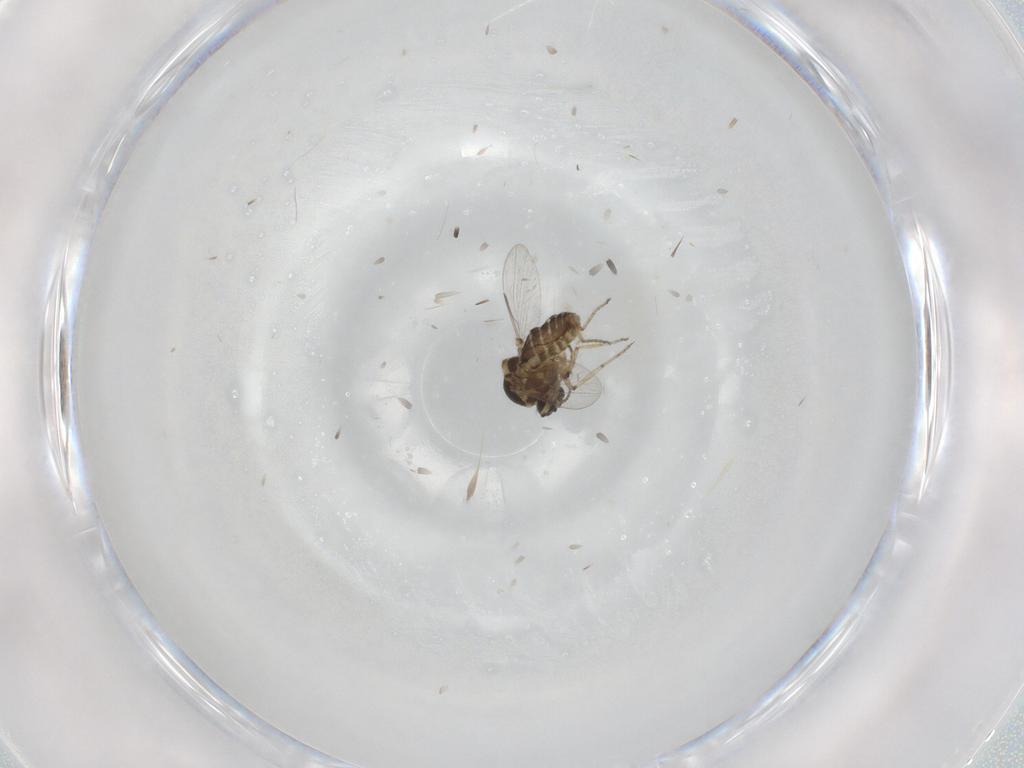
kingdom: Animalia
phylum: Arthropoda
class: Insecta
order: Diptera
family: Chironomidae
